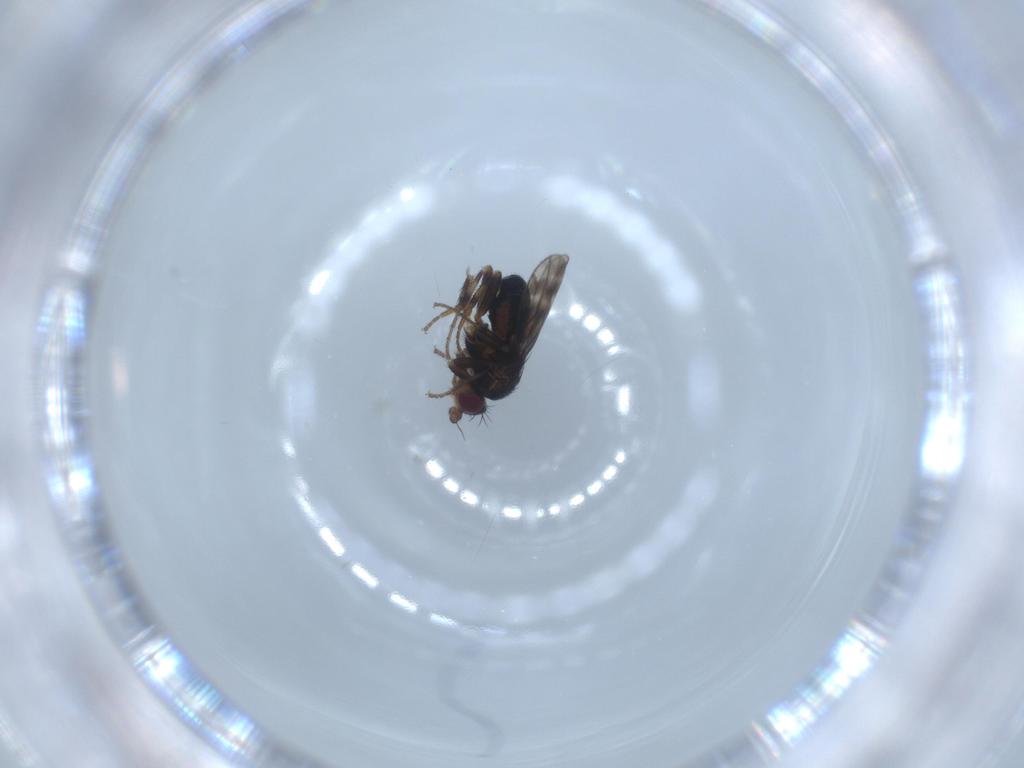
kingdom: Animalia
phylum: Arthropoda
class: Insecta
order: Diptera
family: Sphaeroceridae
